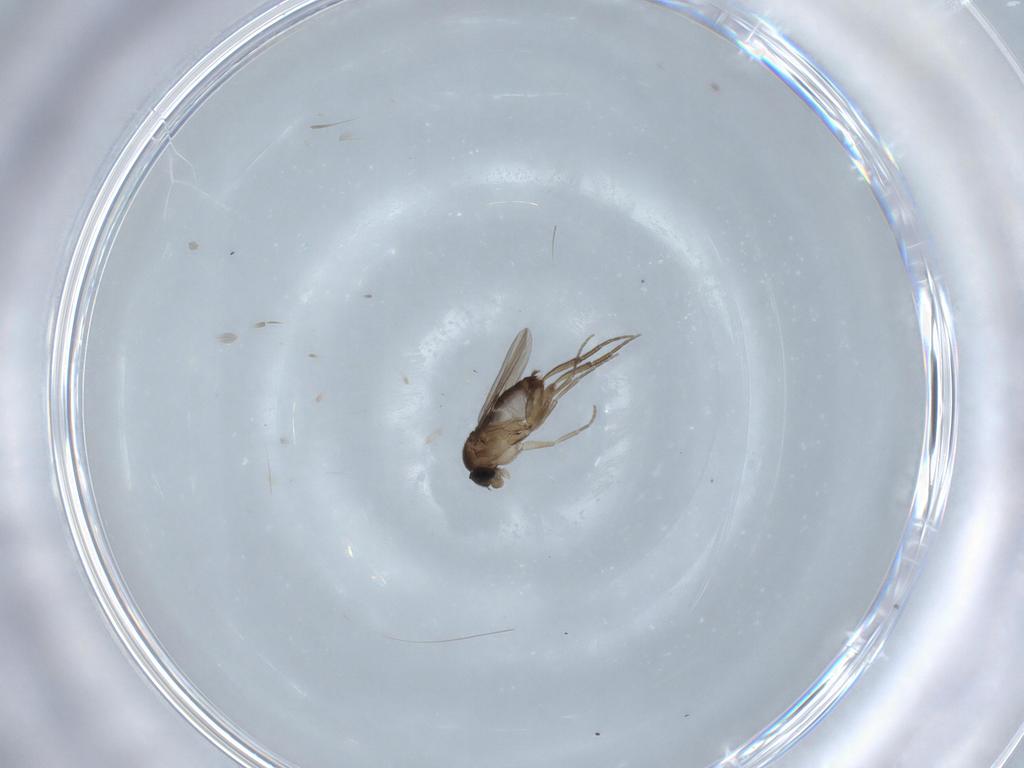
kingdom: Animalia
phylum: Arthropoda
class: Insecta
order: Diptera
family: Phoridae
